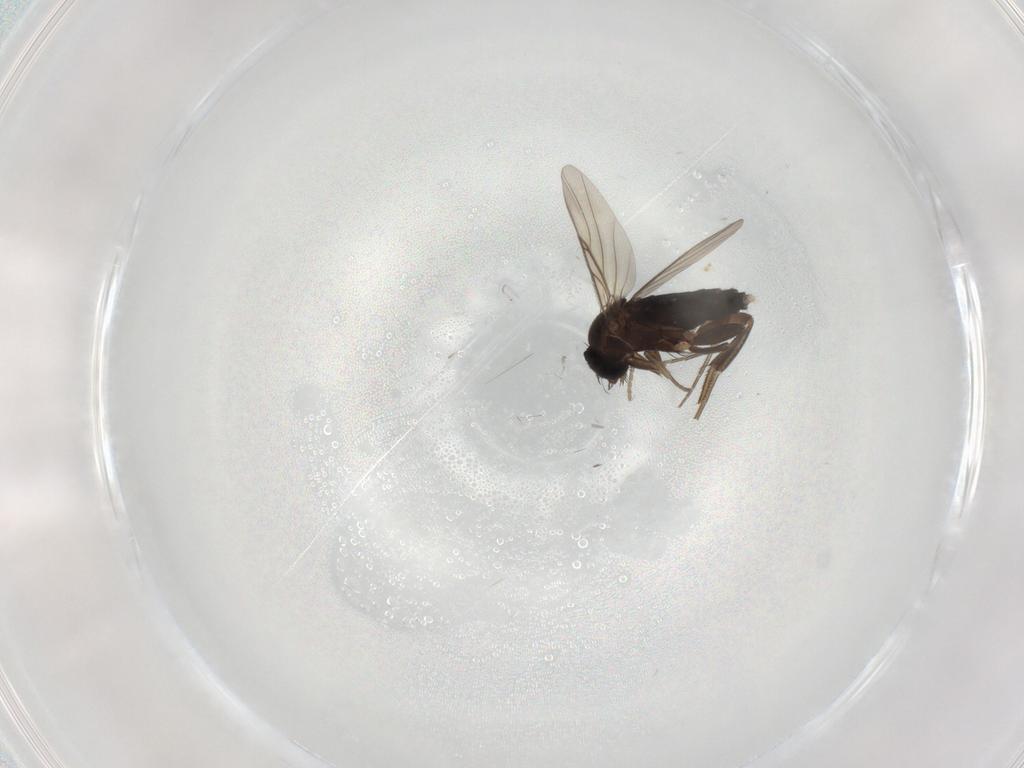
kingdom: Animalia
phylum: Arthropoda
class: Insecta
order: Diptera
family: Phoridae
